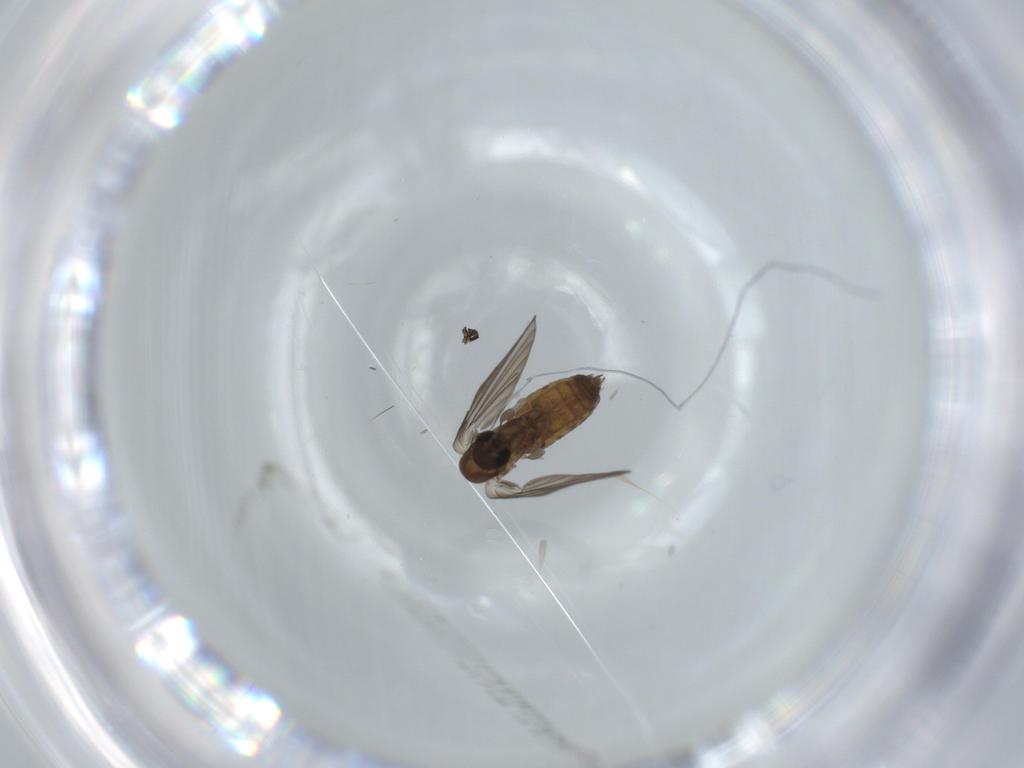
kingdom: Animalia
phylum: Arthropoda
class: Insecta
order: Diptera
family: Psychodidae
